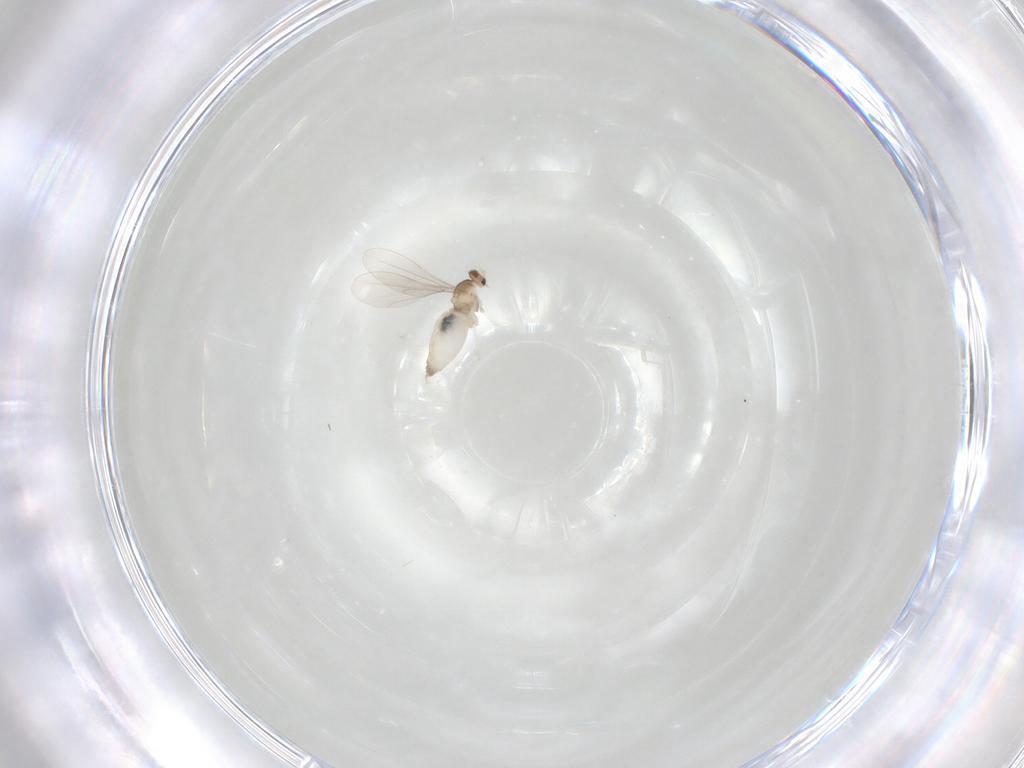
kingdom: Animalia
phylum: Arthropoda
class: Insecta
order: Diptera
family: Cecidomyiidae
